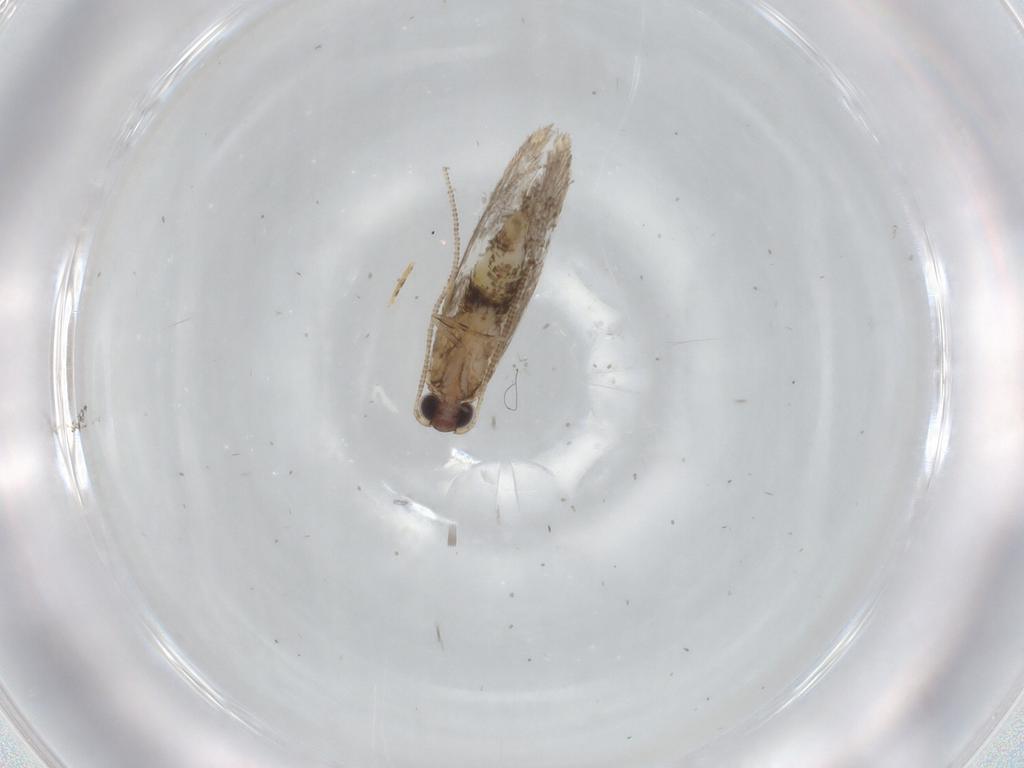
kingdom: Animalia
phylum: Arthropoda
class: Insecta
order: Lepidoptera
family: Tineidae
